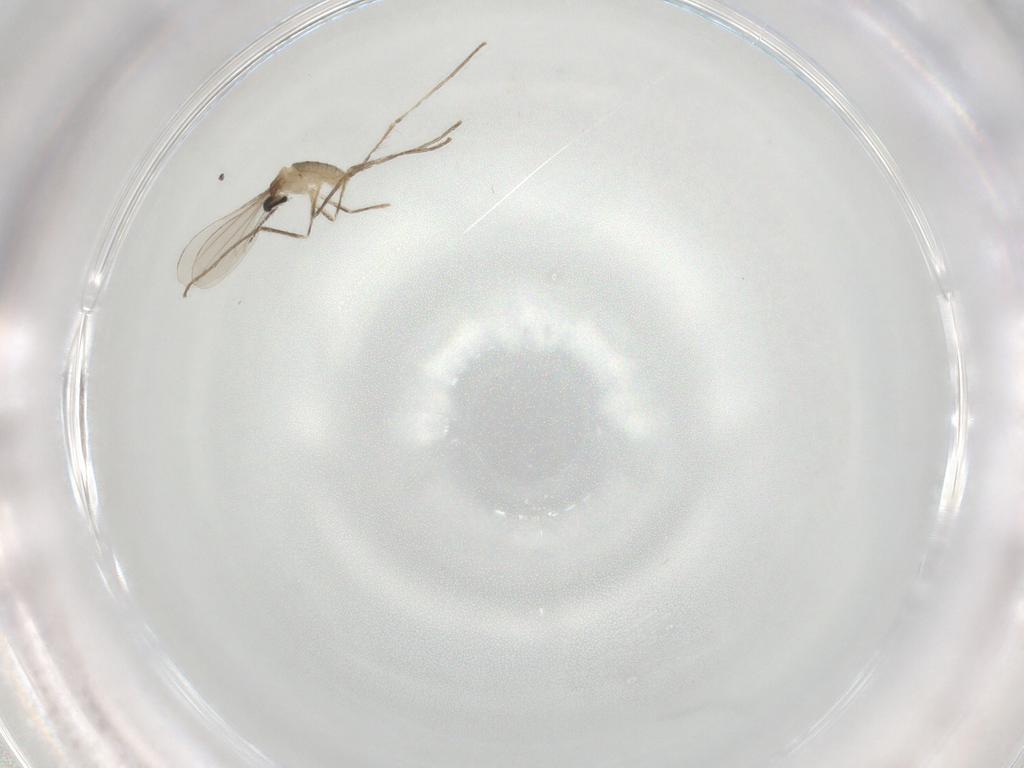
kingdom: Animalia
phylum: Arthropoda
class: Insecta
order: Diptera
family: Cecidomyiidae
